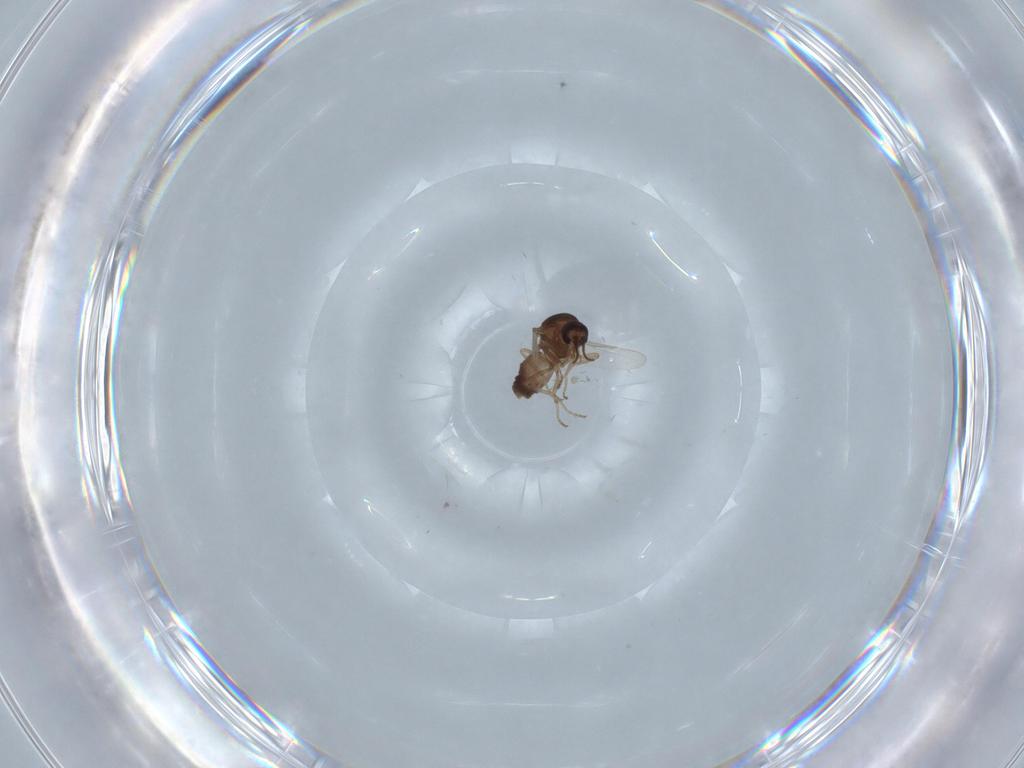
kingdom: Animalia
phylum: Arthropoda
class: Insecta
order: Diptera
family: Ceratopogonidae
